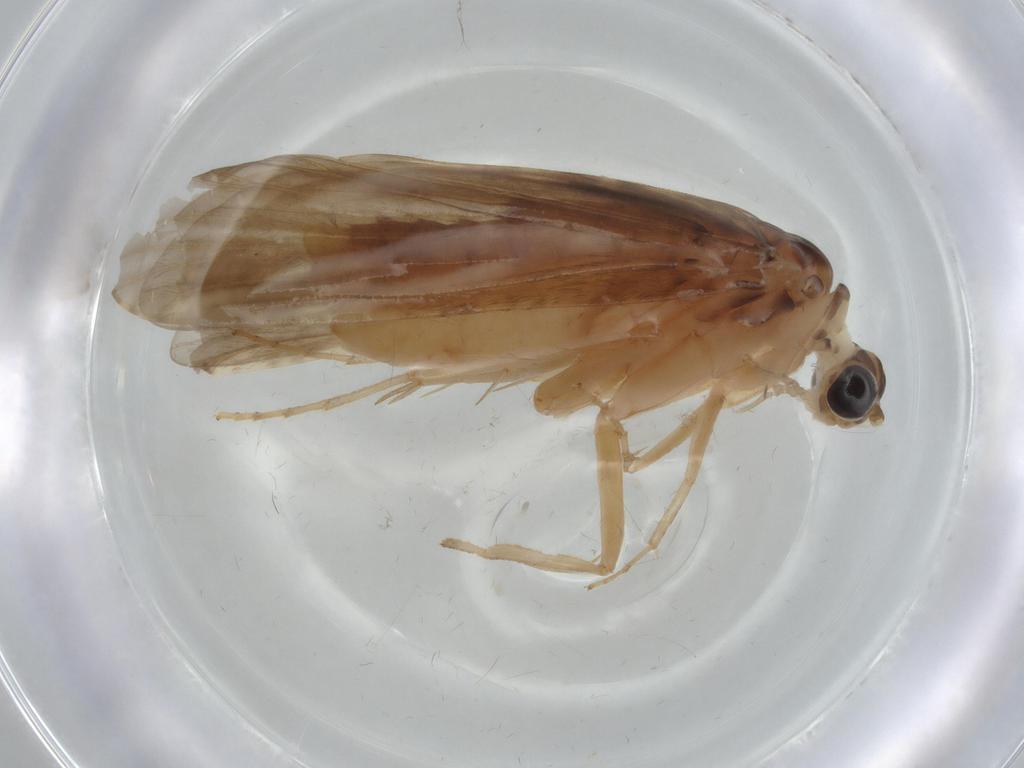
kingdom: Animalia
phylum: Arthropoda
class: Insecta
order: Trichoptera
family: Ecnomidae
